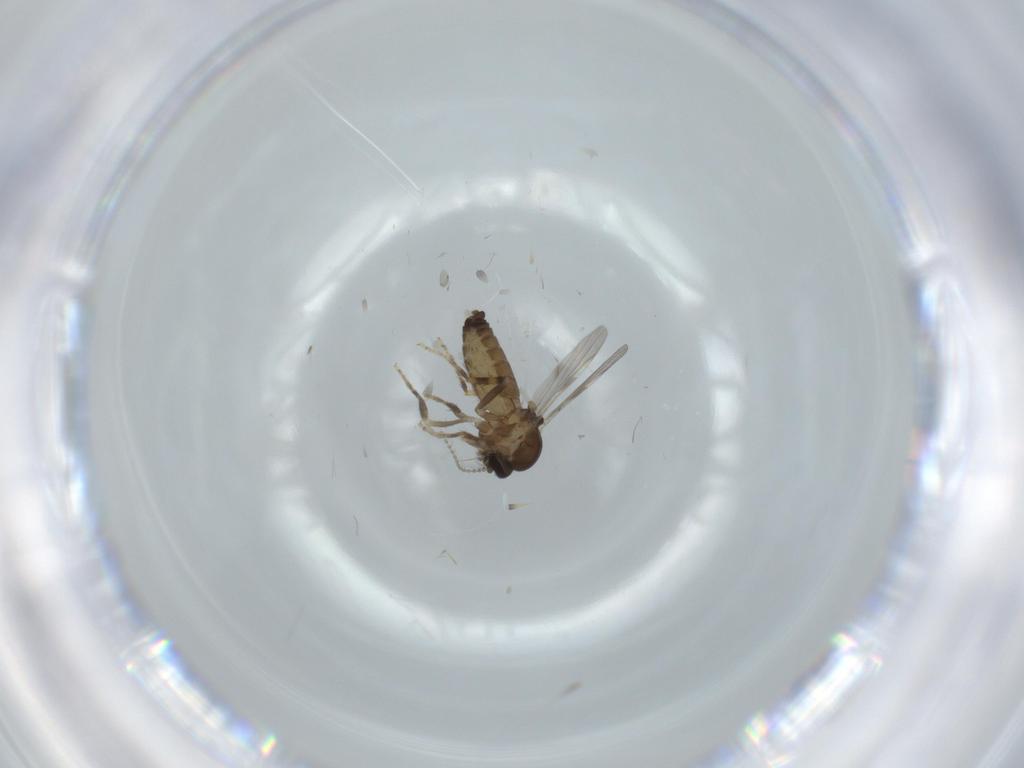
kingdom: Animalia
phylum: Arthropoda
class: Insecta
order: Diptera
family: Ceratopogonidae
